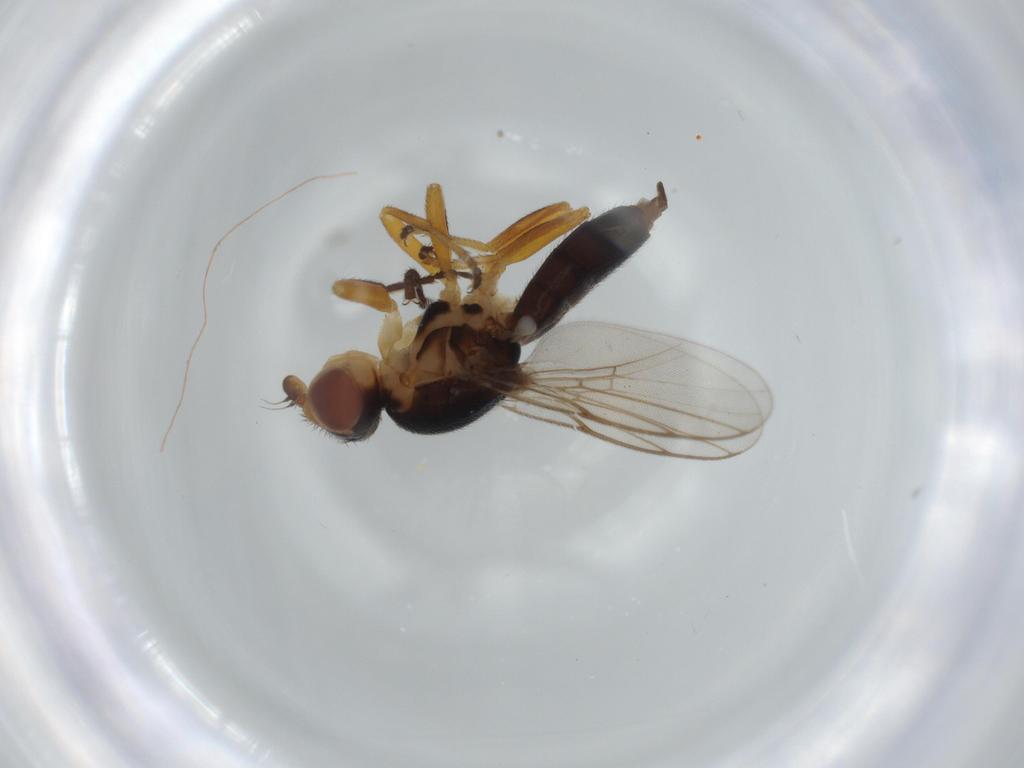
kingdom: Animalia
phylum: Arthropoda
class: Insecta
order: Diptera
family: Chloropidae
